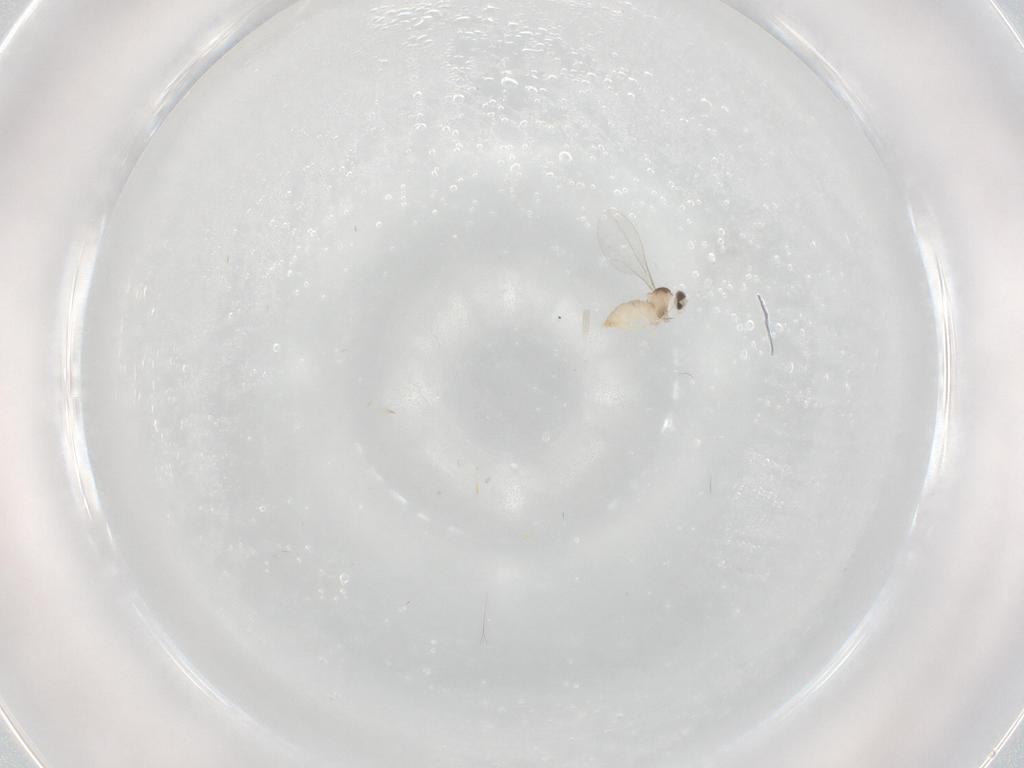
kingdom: Animalia
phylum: Arthropoda
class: Insecta
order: Diptera
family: Cecidomyiidae
